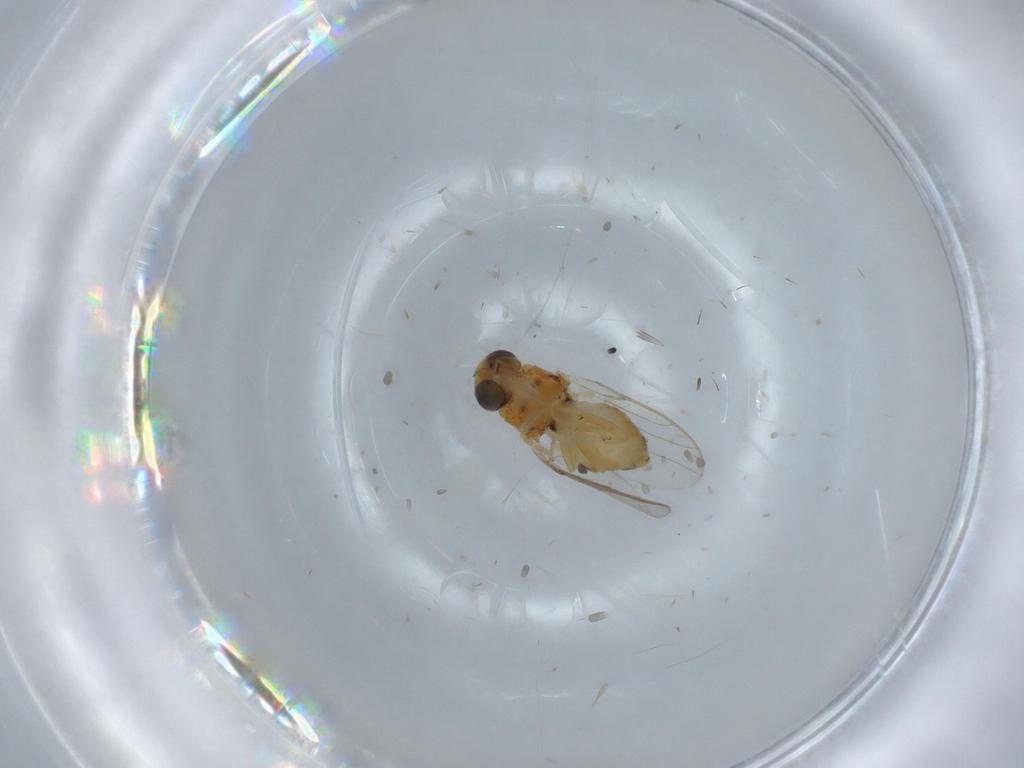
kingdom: Animalia
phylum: Arthropoda
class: Insecta
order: Diptera
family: Chloropidae
